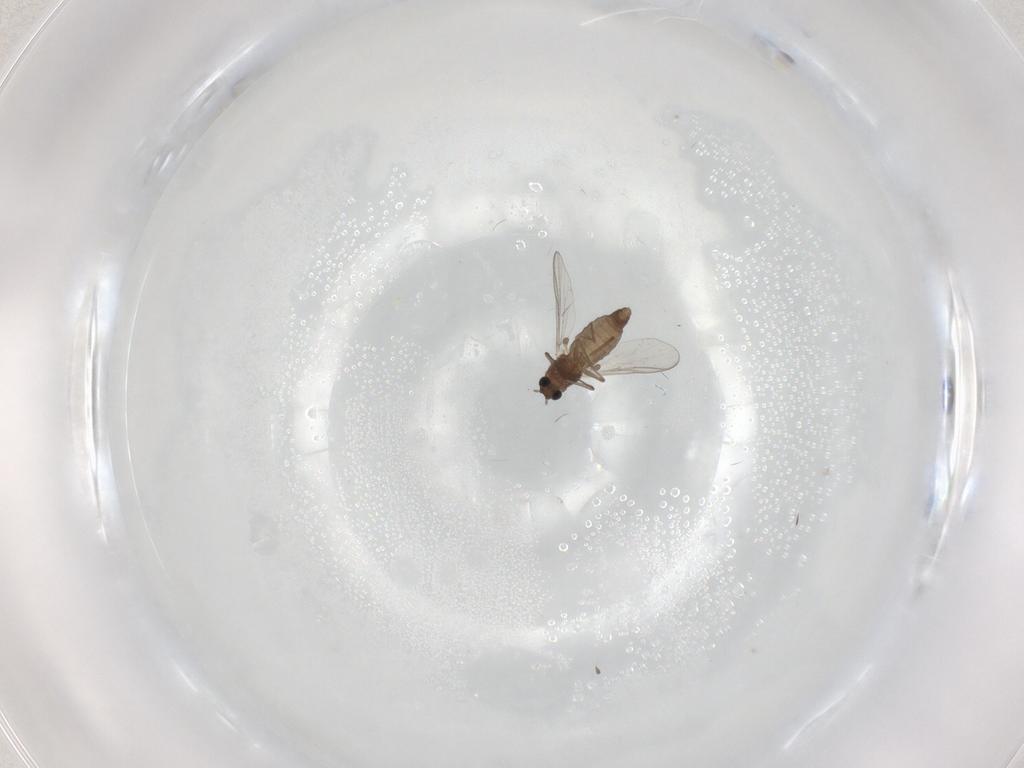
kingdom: Animalia
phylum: Arthropoda
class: Insecta
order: Diptera
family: Chironomidae
